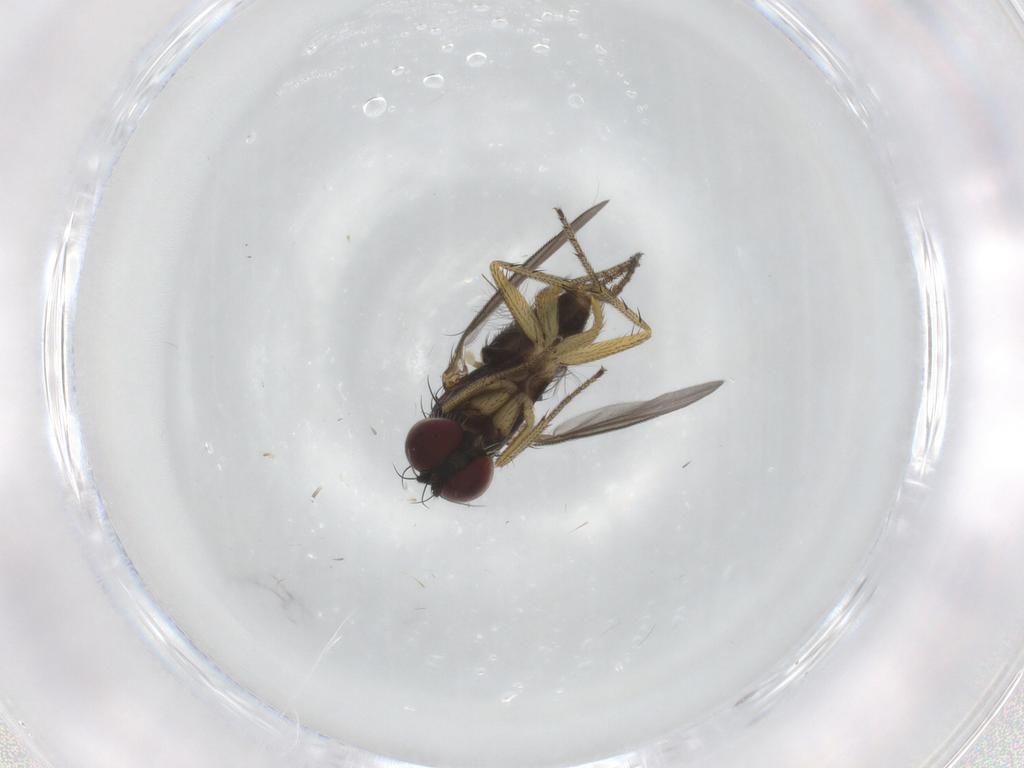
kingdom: Animalia
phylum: Arthropoda
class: Insecta
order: Diptera
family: Chironomidae
